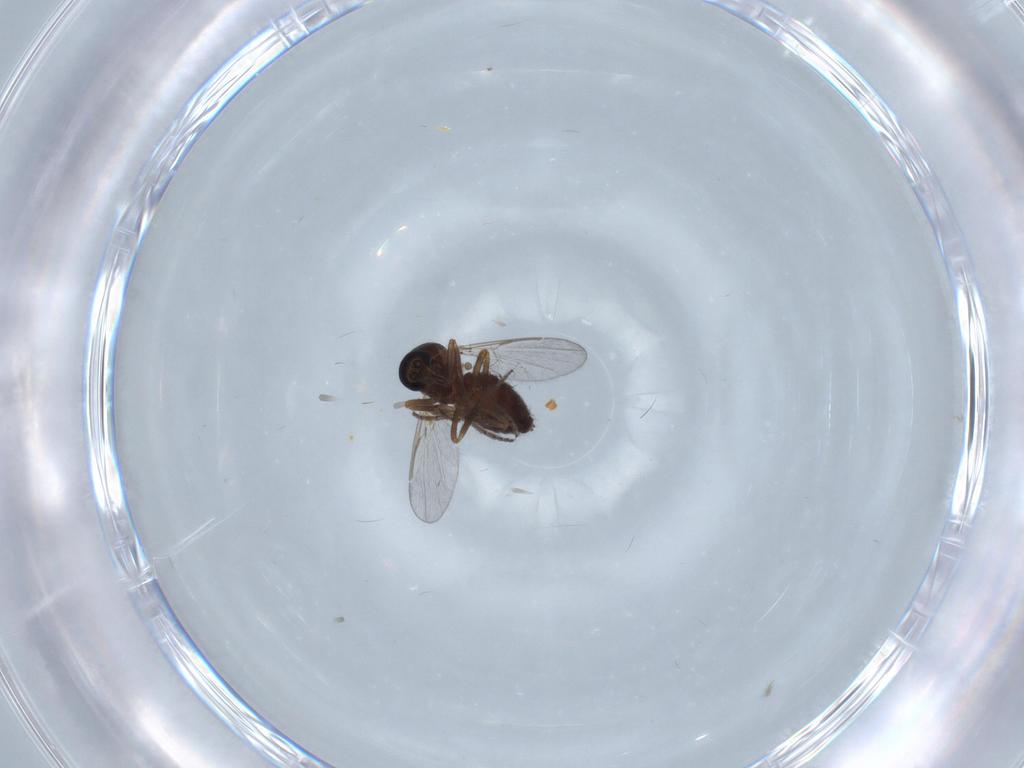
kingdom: Animalia
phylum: Arthropoda
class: Insecta
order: Diptera
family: Ceratopogonidae
